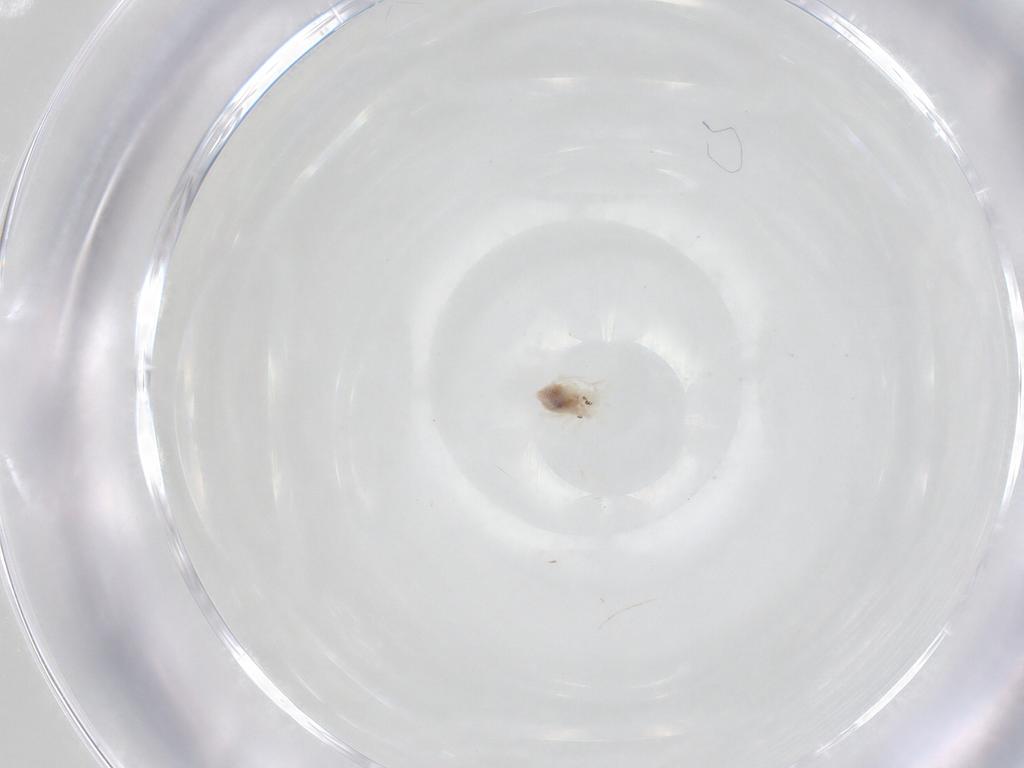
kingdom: Animalia
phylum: Arthropoda
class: Arachnida
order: Trombidiformes
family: Anystidae
